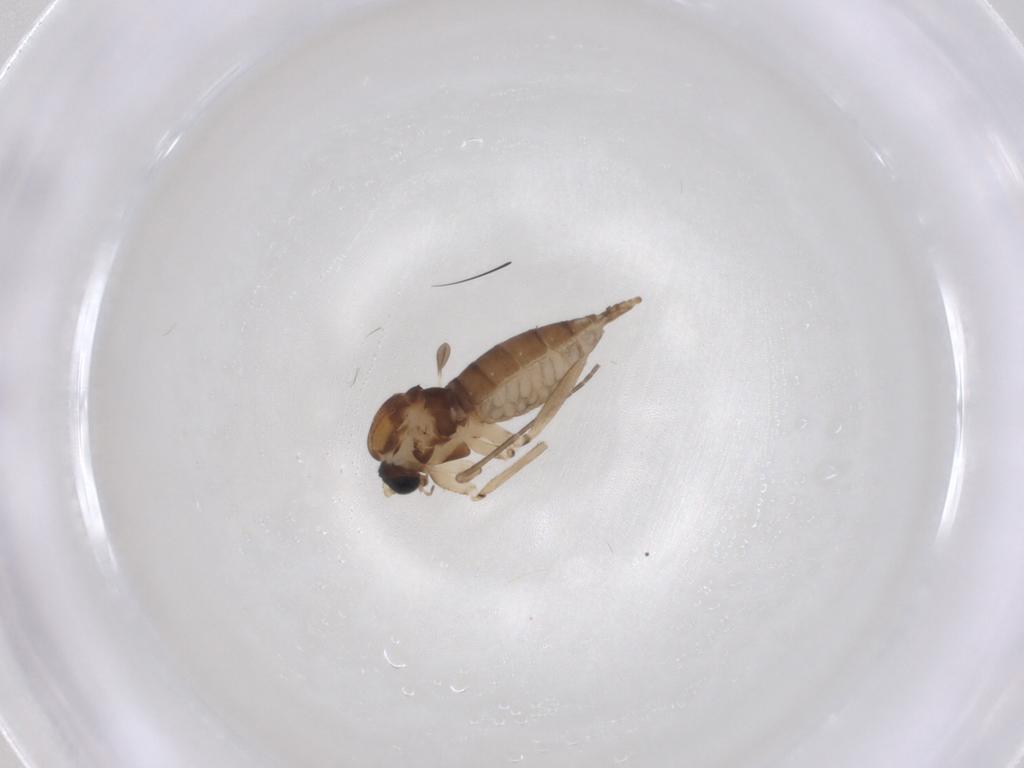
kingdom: Animalia
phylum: Arthropoda
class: Insecta
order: Diptera
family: Sciaridae
